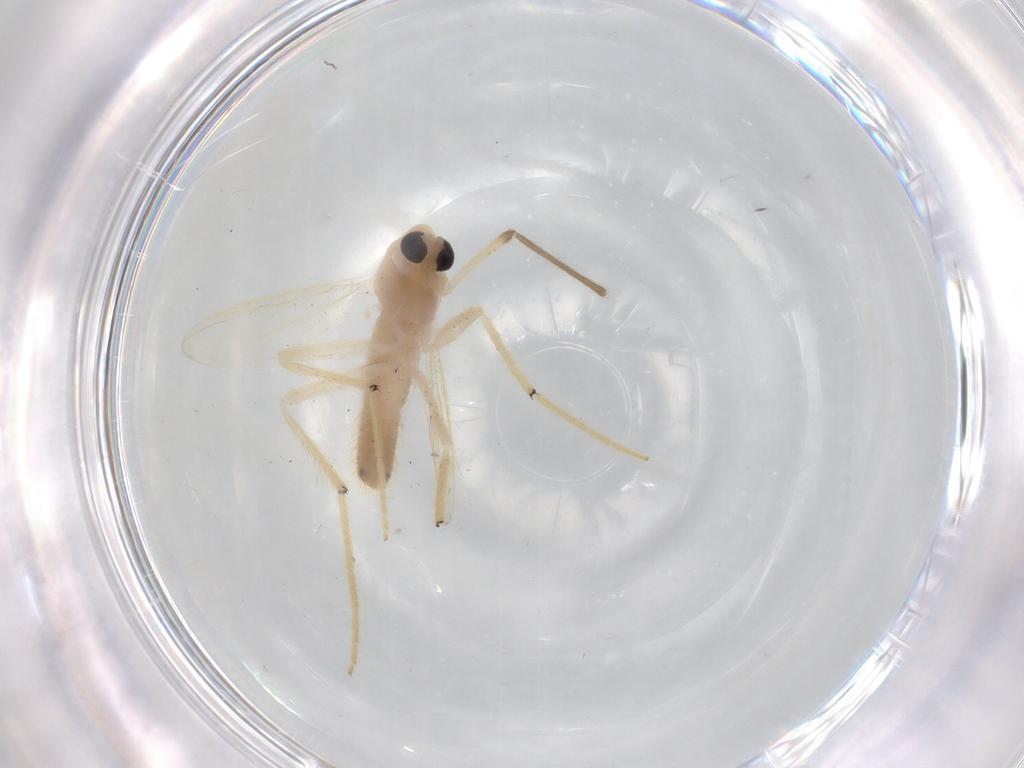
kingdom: Animalia
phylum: Arthropoda
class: Insecta
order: Diptera
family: Chironomidae
